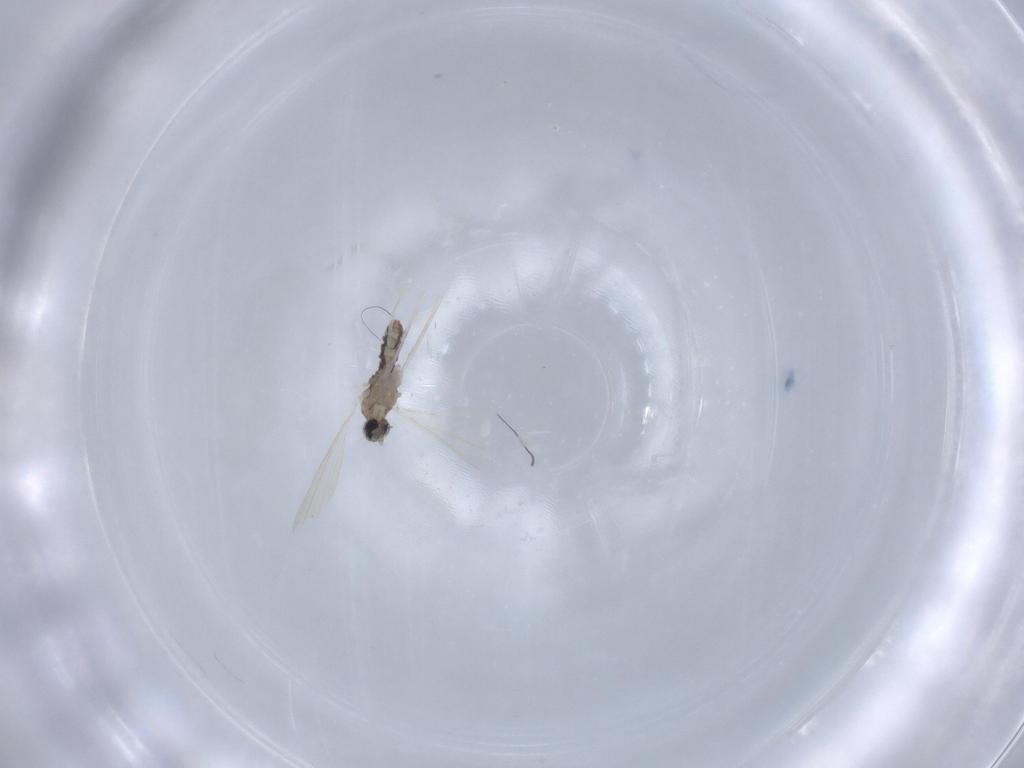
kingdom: Animalia
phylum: Arthropoda
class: Insecta
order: Diptera
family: Cecidomyiidae
